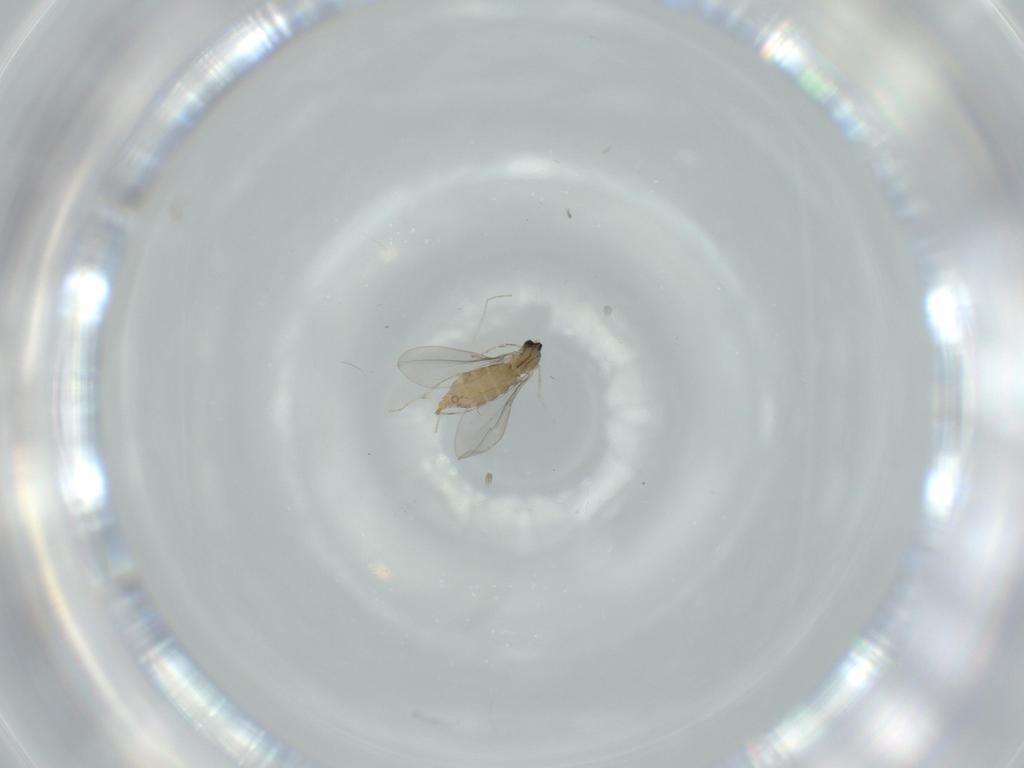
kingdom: Animalia
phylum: Arthropoda
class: Insecta
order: Diptera
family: Cecidomyiidae
